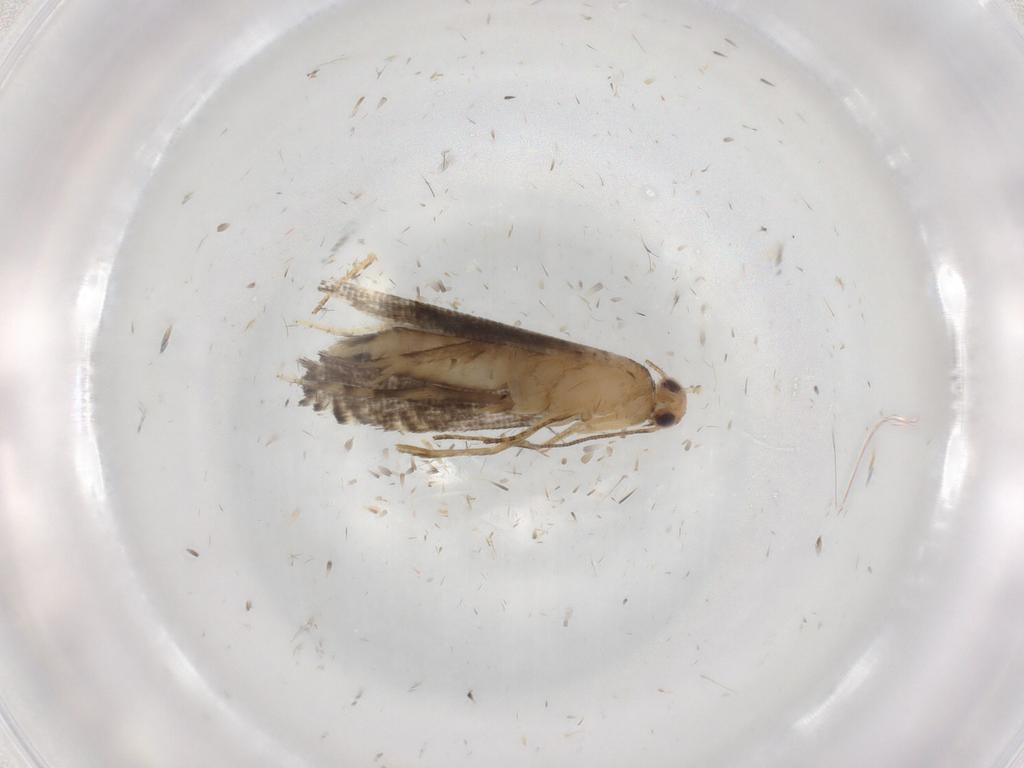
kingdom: Animalia
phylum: Arthropoda
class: Insecta
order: Lepidoptera
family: Glyphipterigidae
